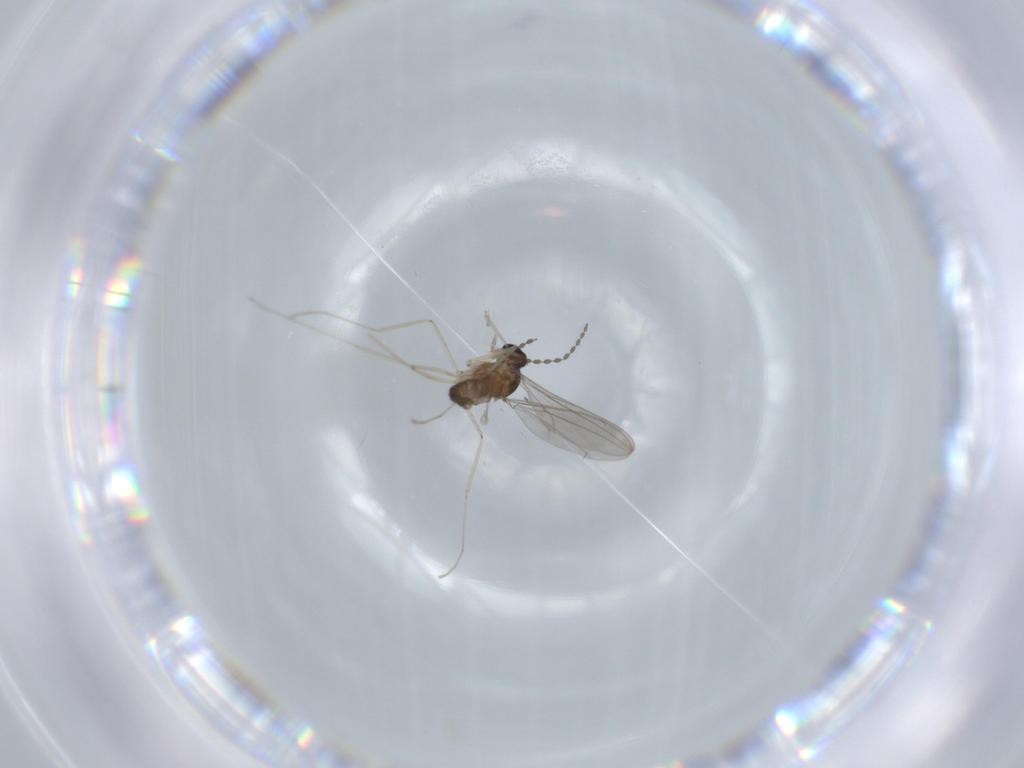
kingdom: Animalia
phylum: Arthropoda
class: Insecta
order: Diptera
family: Cecidomyiidae
